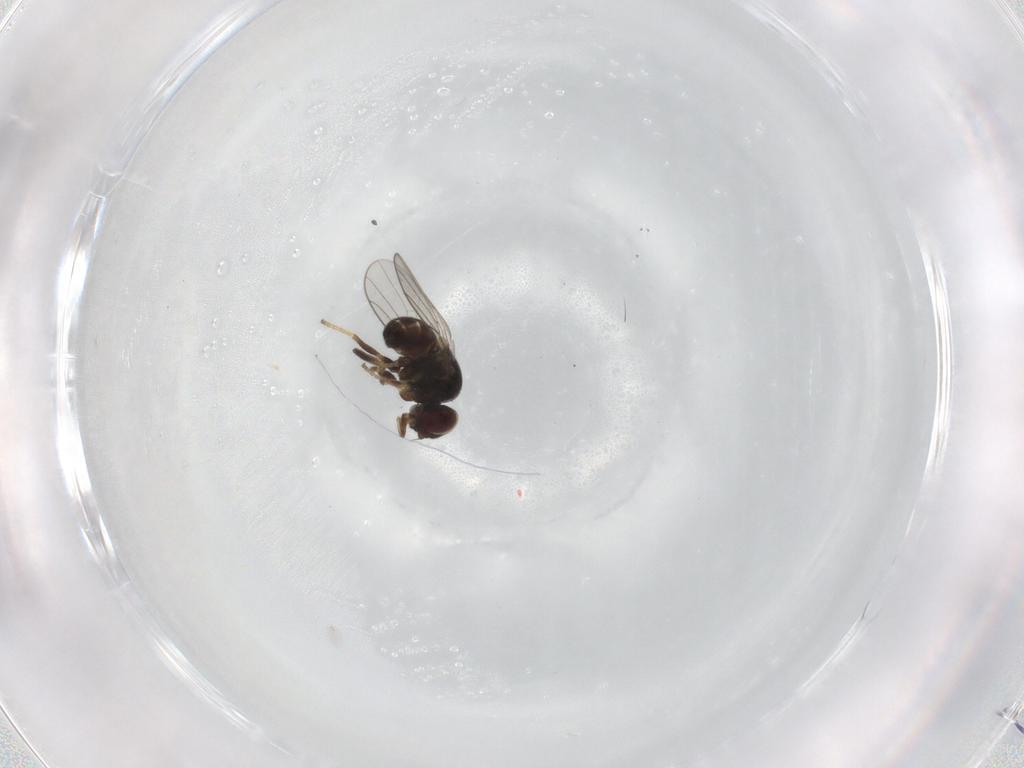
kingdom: Animalia
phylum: Arthropoda
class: Insecta
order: Diptera
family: Chloropidae
